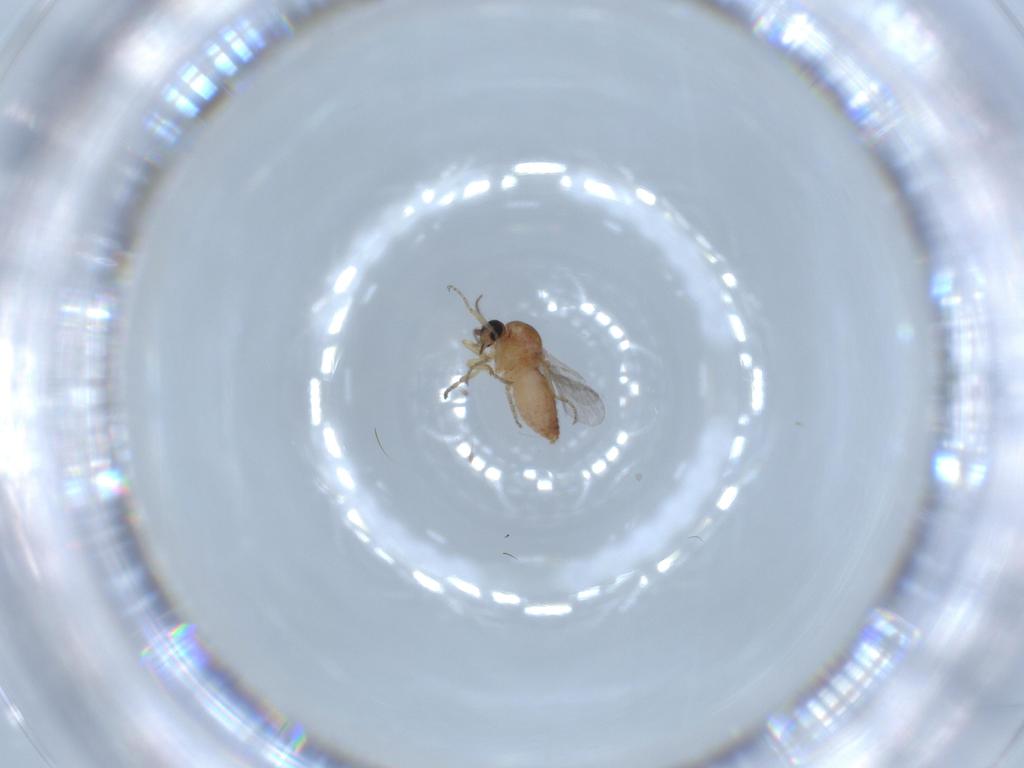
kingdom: Animalia
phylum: Arthropoda
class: Insecta
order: Diptera
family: Ceratopogonidae
